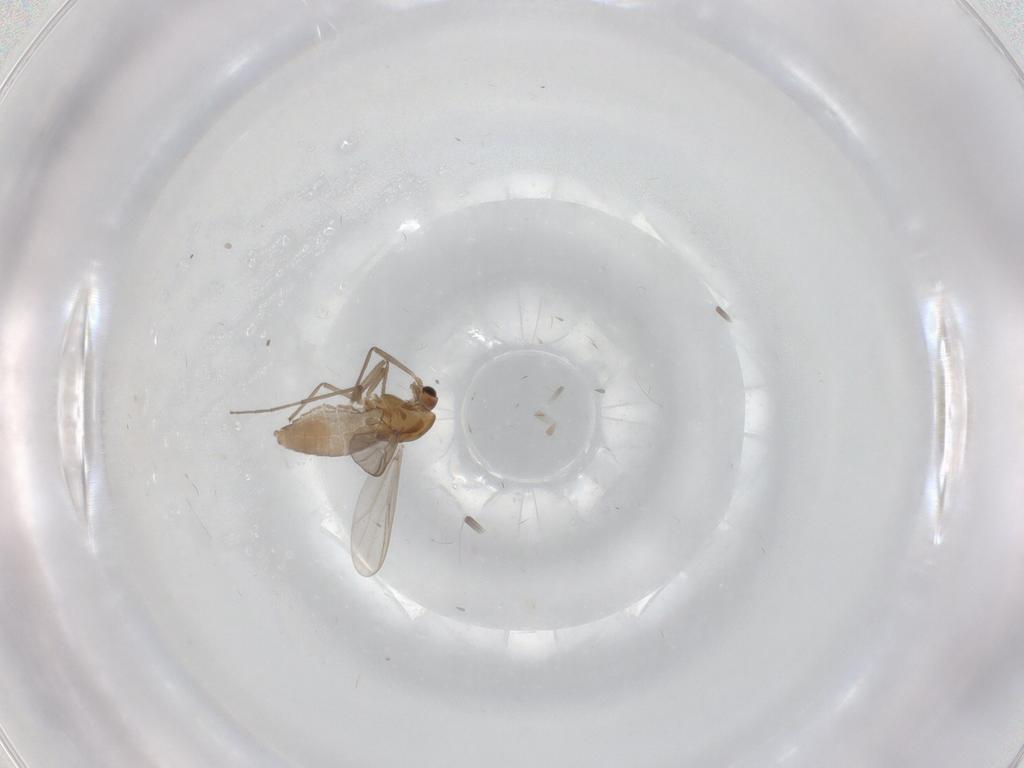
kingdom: Animalia
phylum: Arthropoda
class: Insecta
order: Diptera
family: Chironomidae
